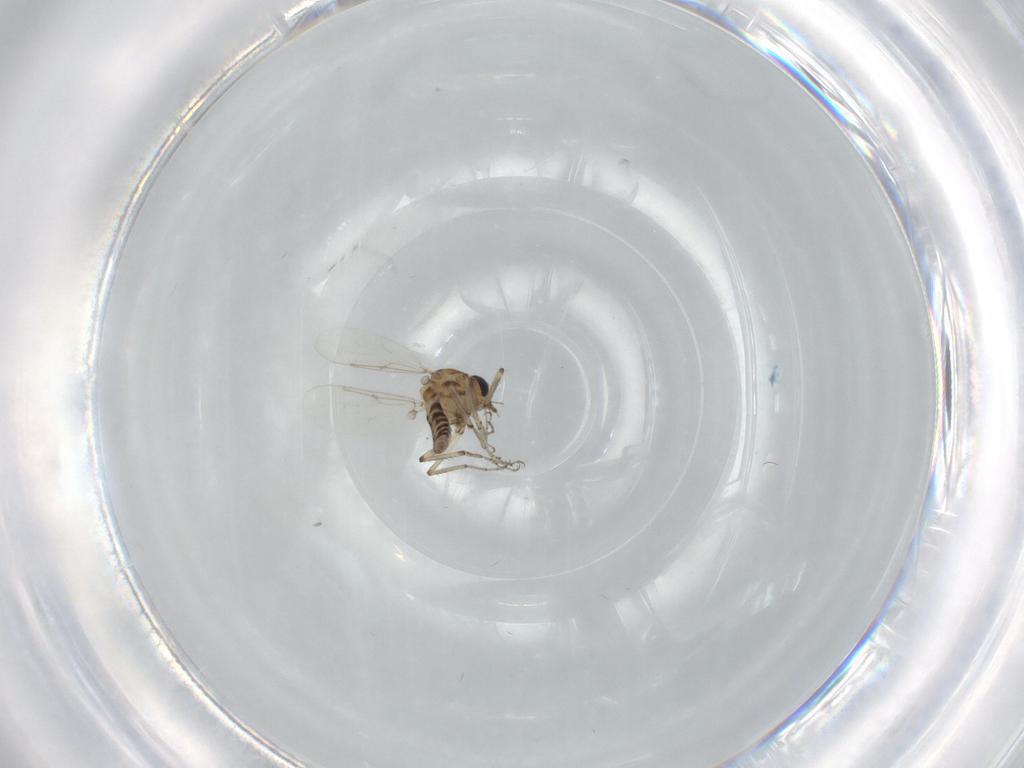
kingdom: Animalia
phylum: Arthropoda
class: Insecta
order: Diptera
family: Ceratopogonidae
